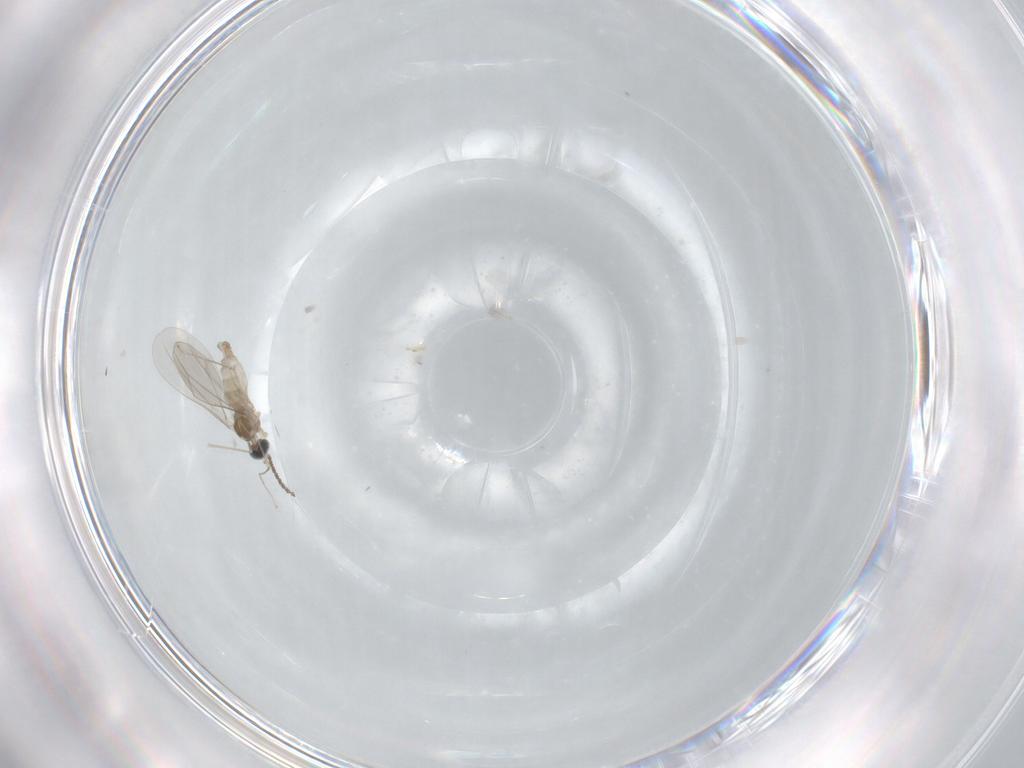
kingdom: Animalia
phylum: Arthropoda
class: Insecta
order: Diptera
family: Cecidomyiidae
